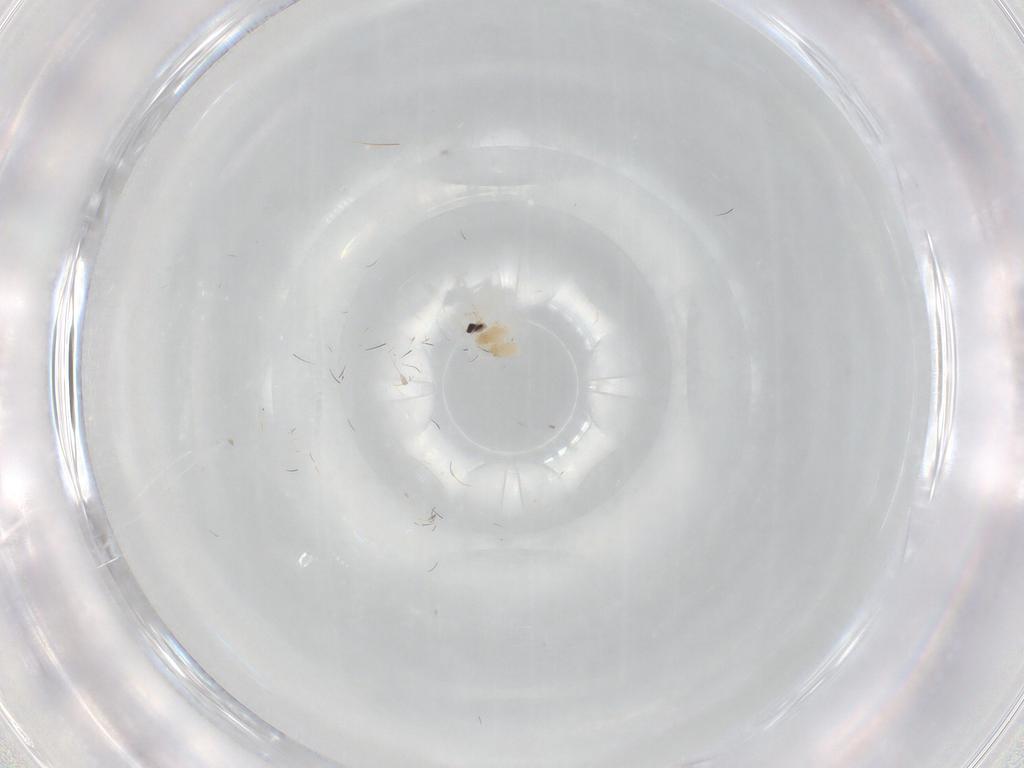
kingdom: Animalia
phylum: Arthropoda
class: Insecta
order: Diptera
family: Cecidomyiidae
